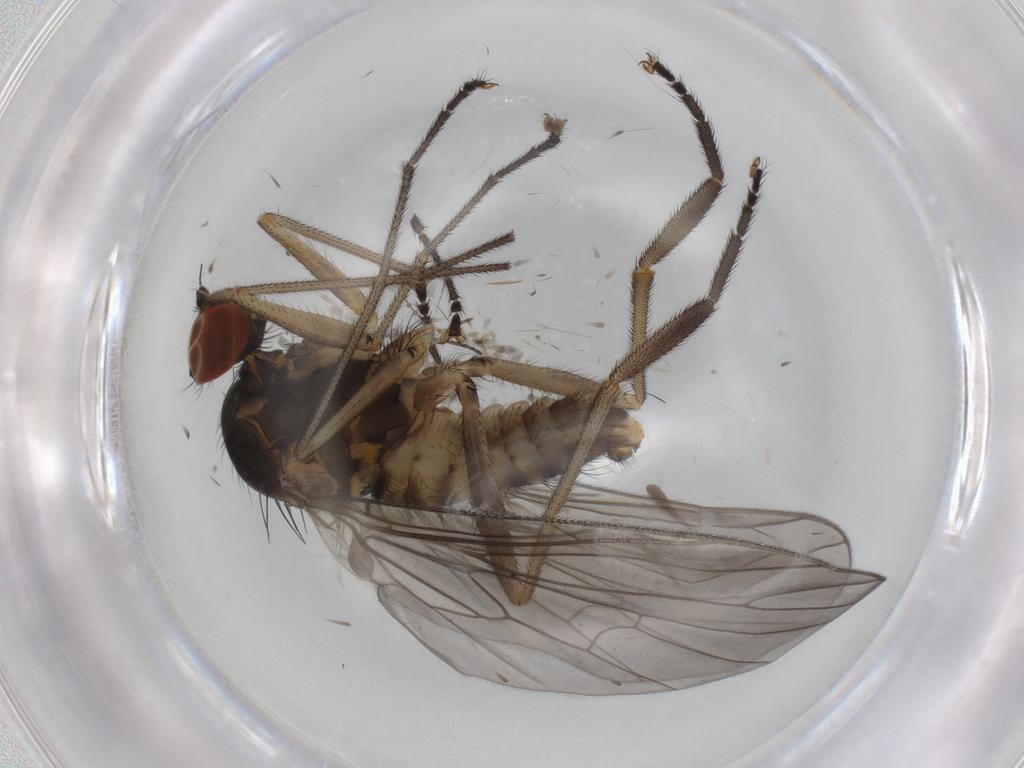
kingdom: Animalia
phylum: Arthropoda
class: Insecta
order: Diptera
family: Brachystomatidae
